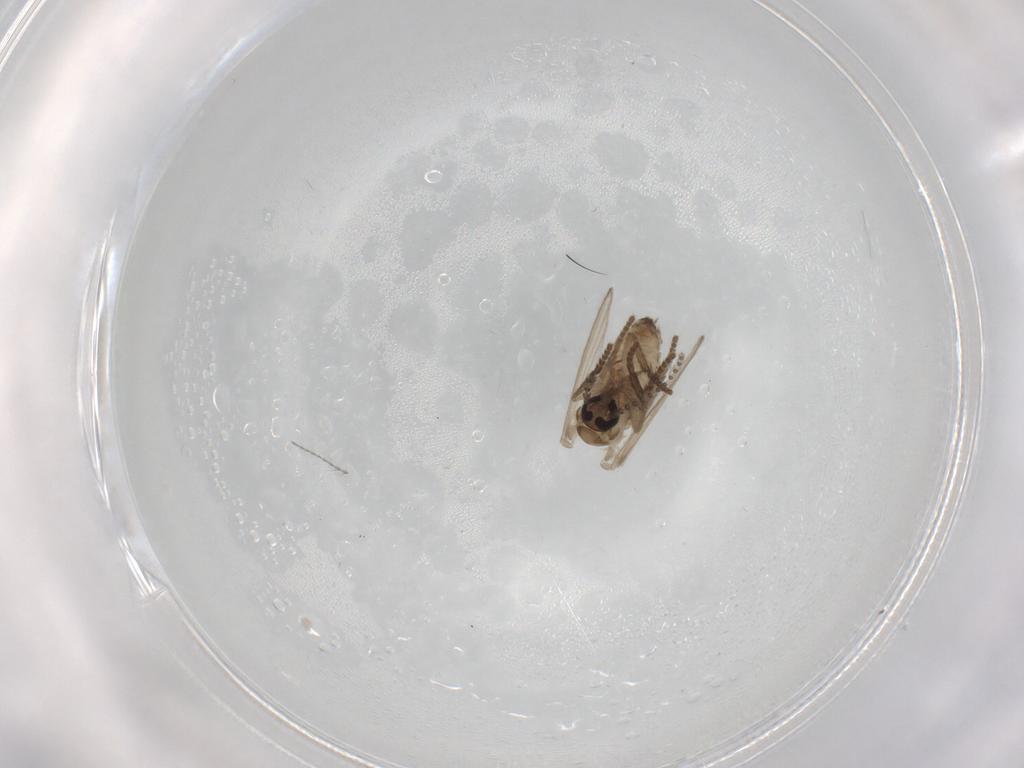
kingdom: Animalia
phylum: Arthropoda
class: Insecta
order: Diptera
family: Psychodidae
